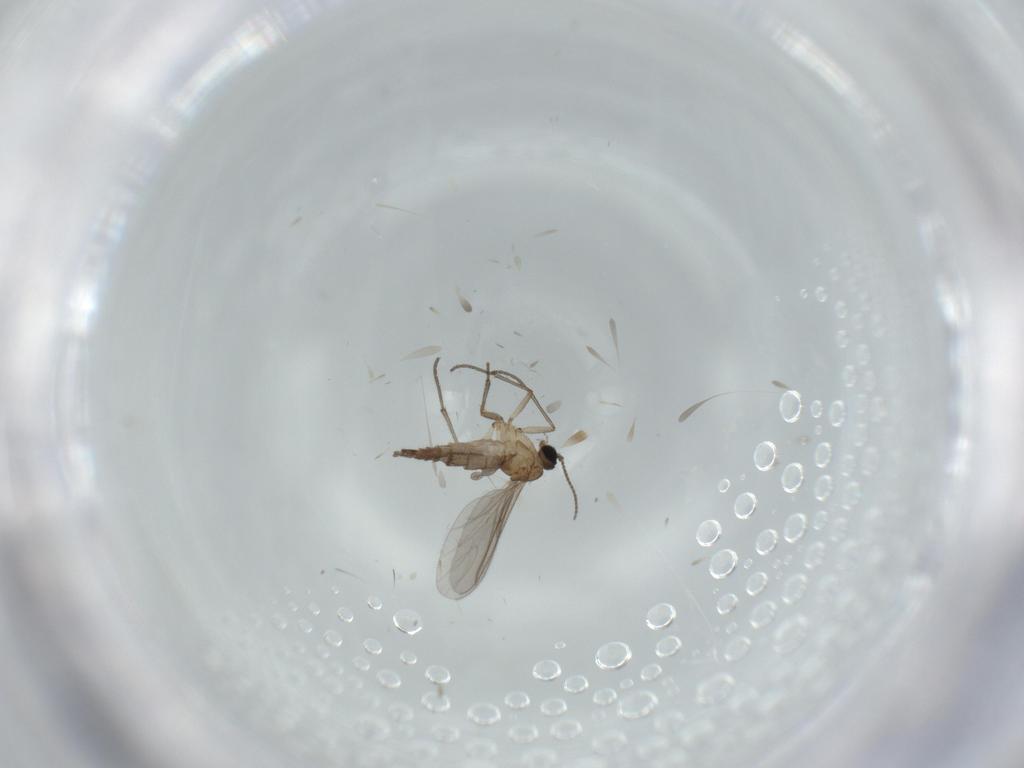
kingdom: Animalia
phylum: Arthropoda
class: Insecta
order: Diptera
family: Sciaridae
